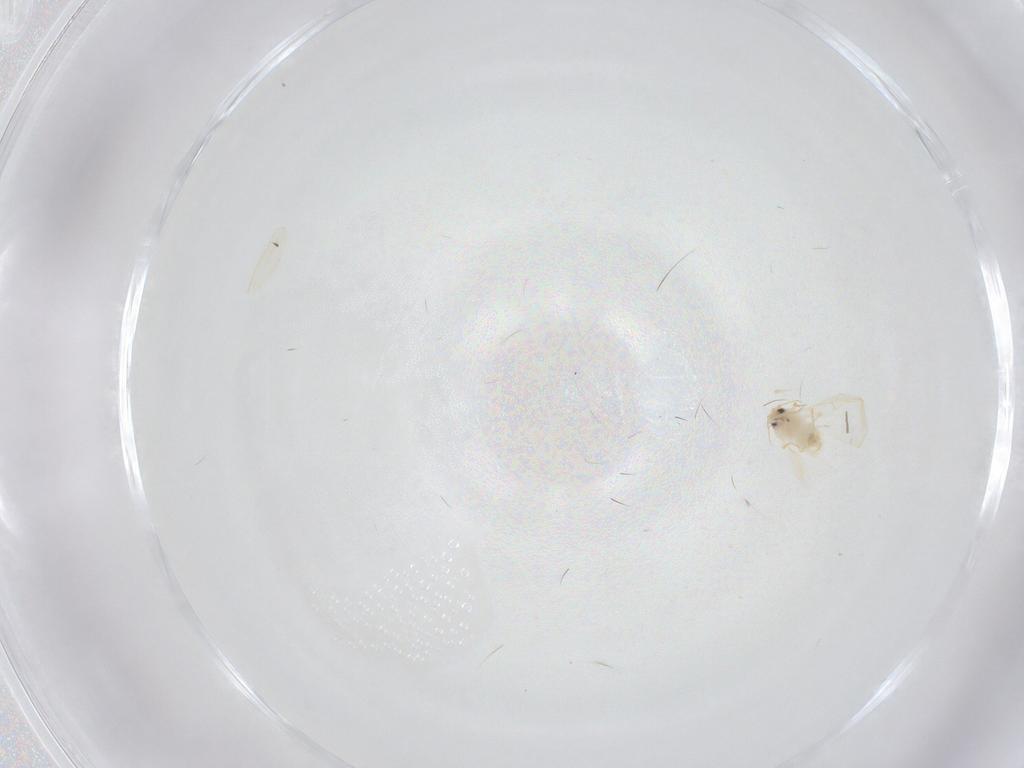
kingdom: Animalia
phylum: Arthropoda
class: Insecta
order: Hemiptera
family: Aleyrodidae
